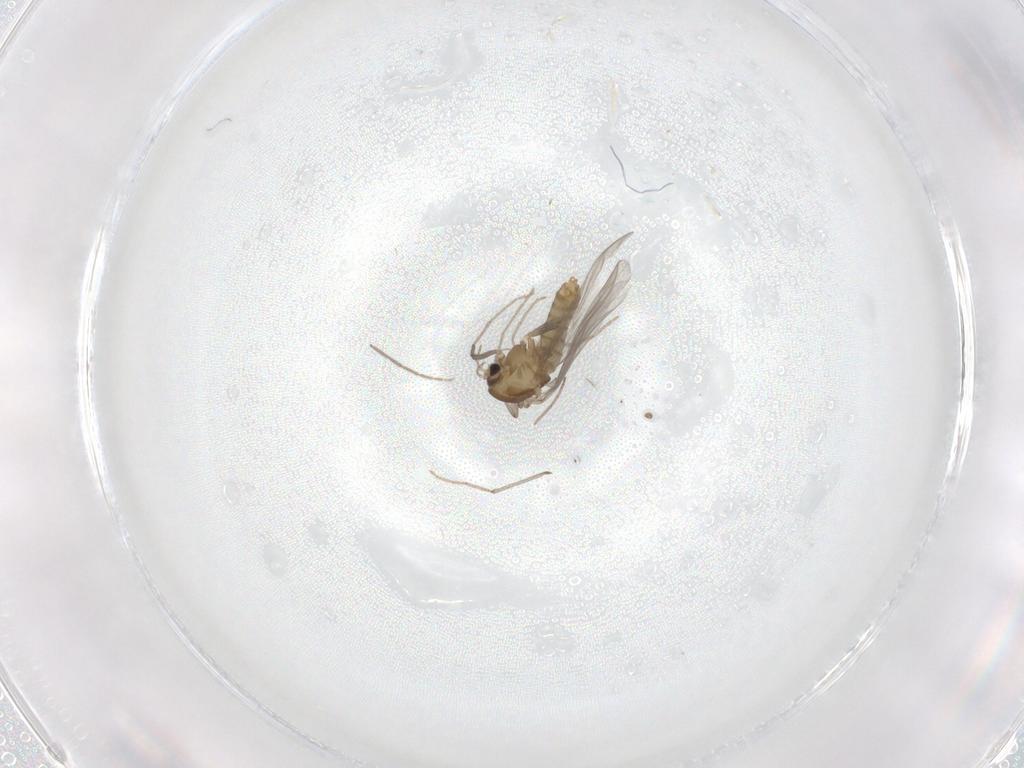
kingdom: Animalia
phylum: Arthropoda
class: Insecta
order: Diptera
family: Chironomidae
